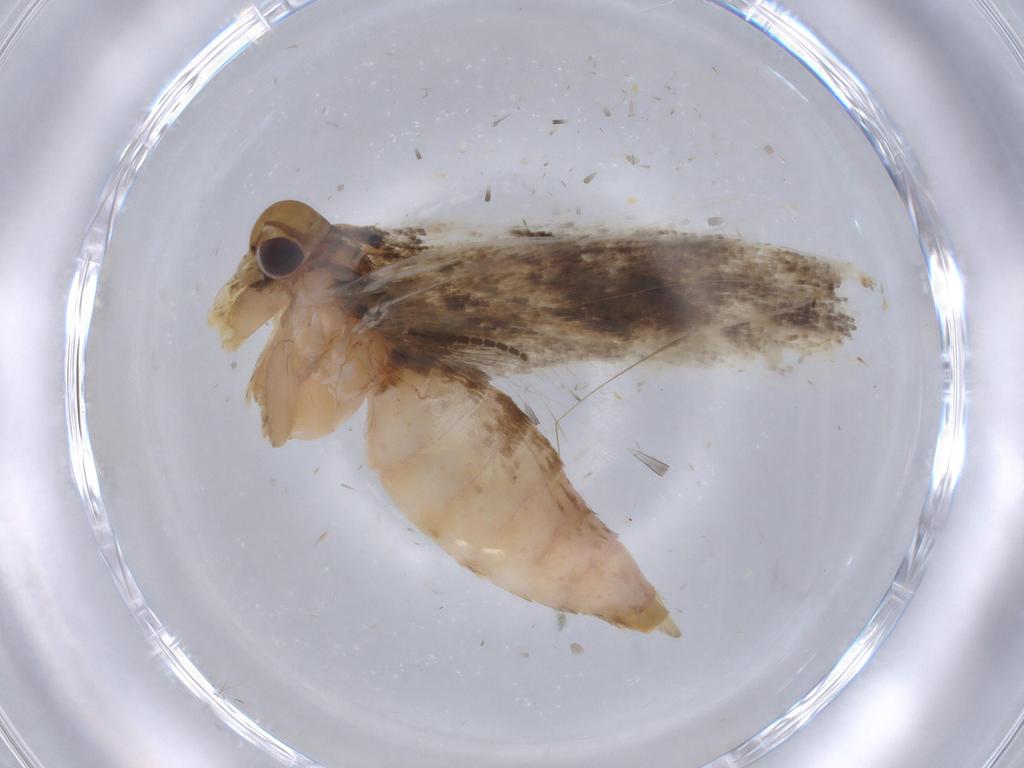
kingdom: Animalia
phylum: Arthropoda
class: Insecta
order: Lepidoptera
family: Gelechiidae
